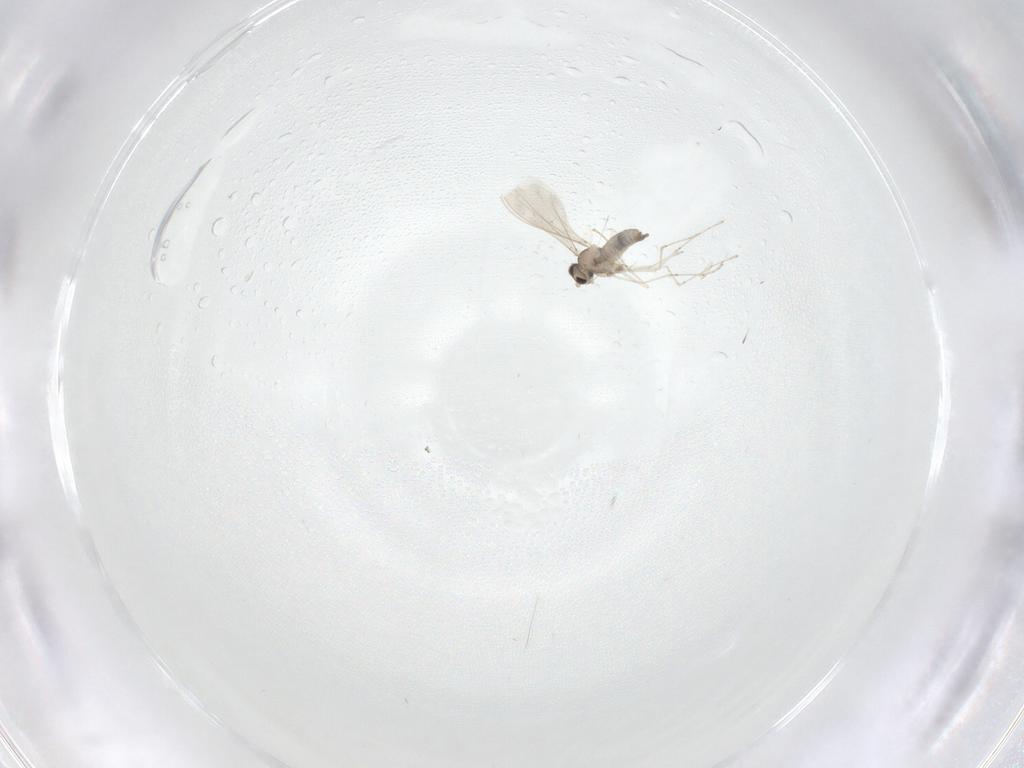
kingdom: Animalia
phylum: Arthropoda
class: Insecta
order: Diptera
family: Cecidomyiidae
